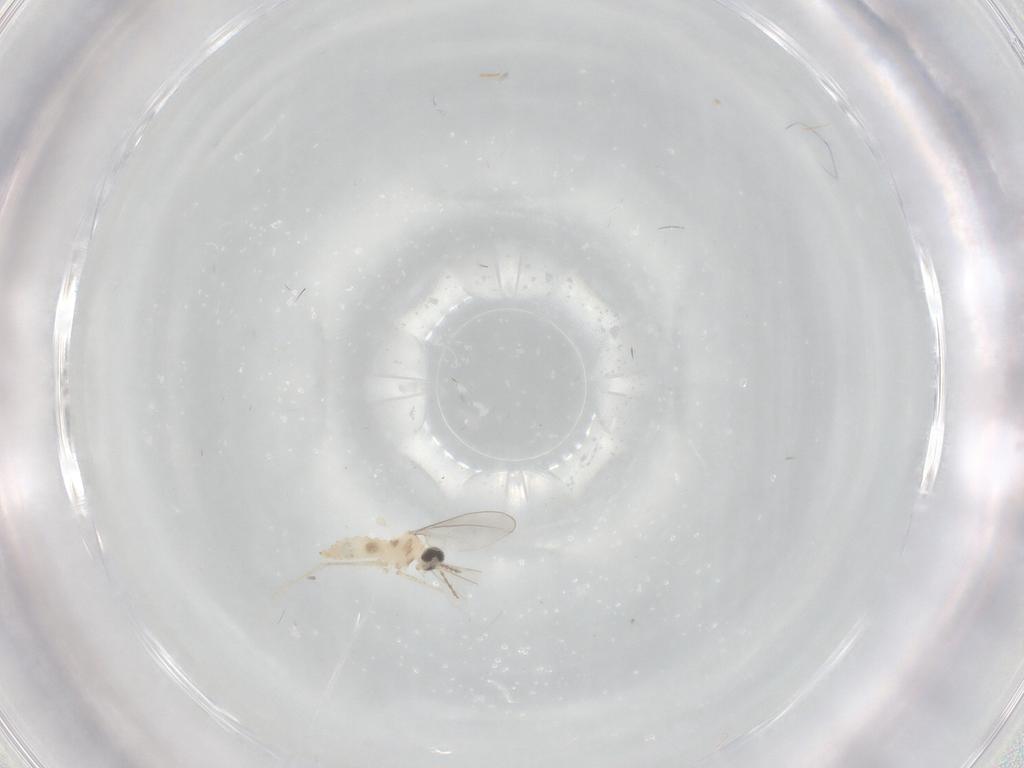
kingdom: Animalia
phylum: Arthropoda
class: Insecta
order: Diptera
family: Cecidomyiidae
